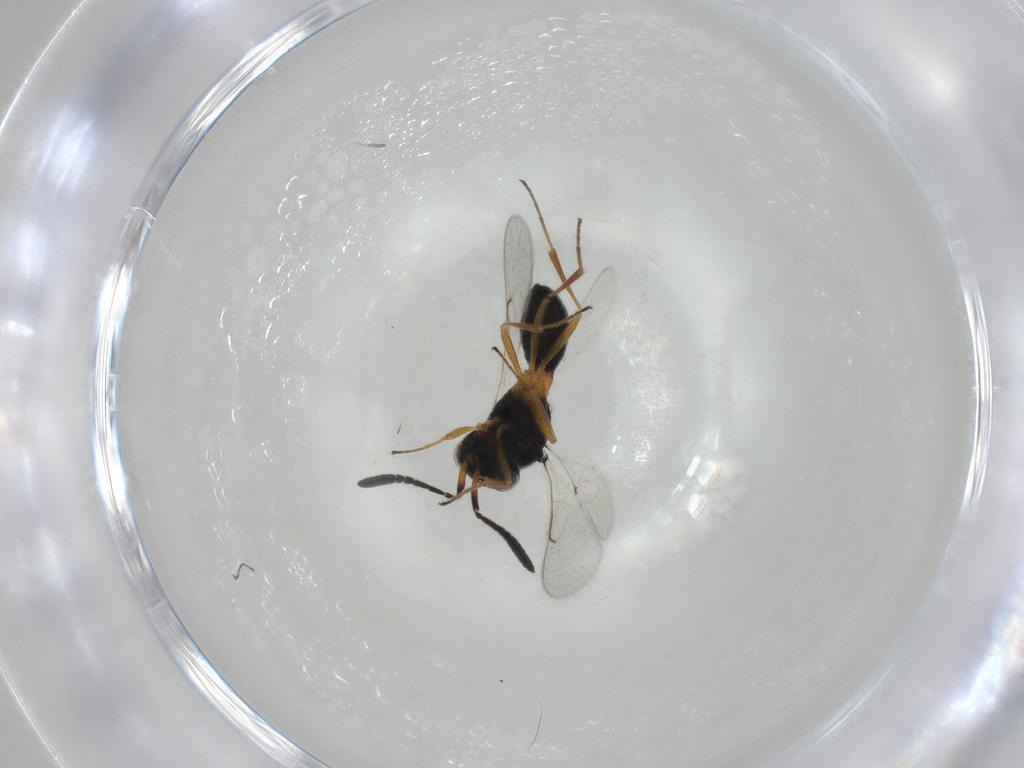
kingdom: Animalia
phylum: Arthropoda
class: Insecta
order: Hymenoptera
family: Scelionidae
